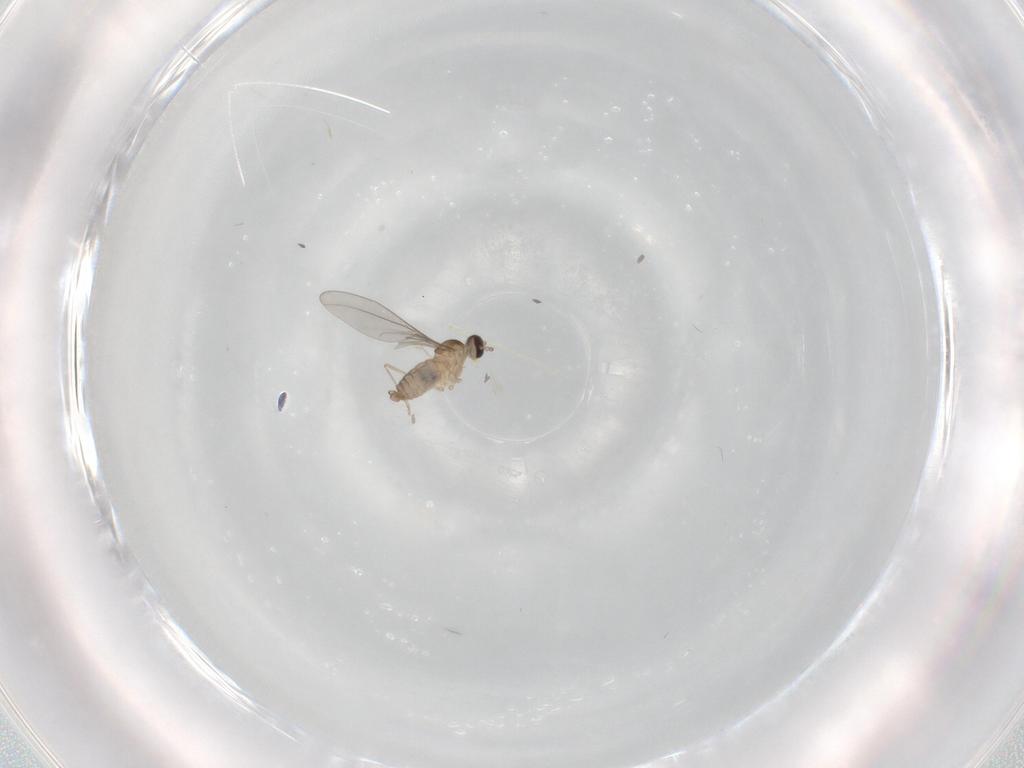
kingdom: Animalia
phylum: Arthropoda
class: Insecta
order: Diptera
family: Cecidomyiidae
